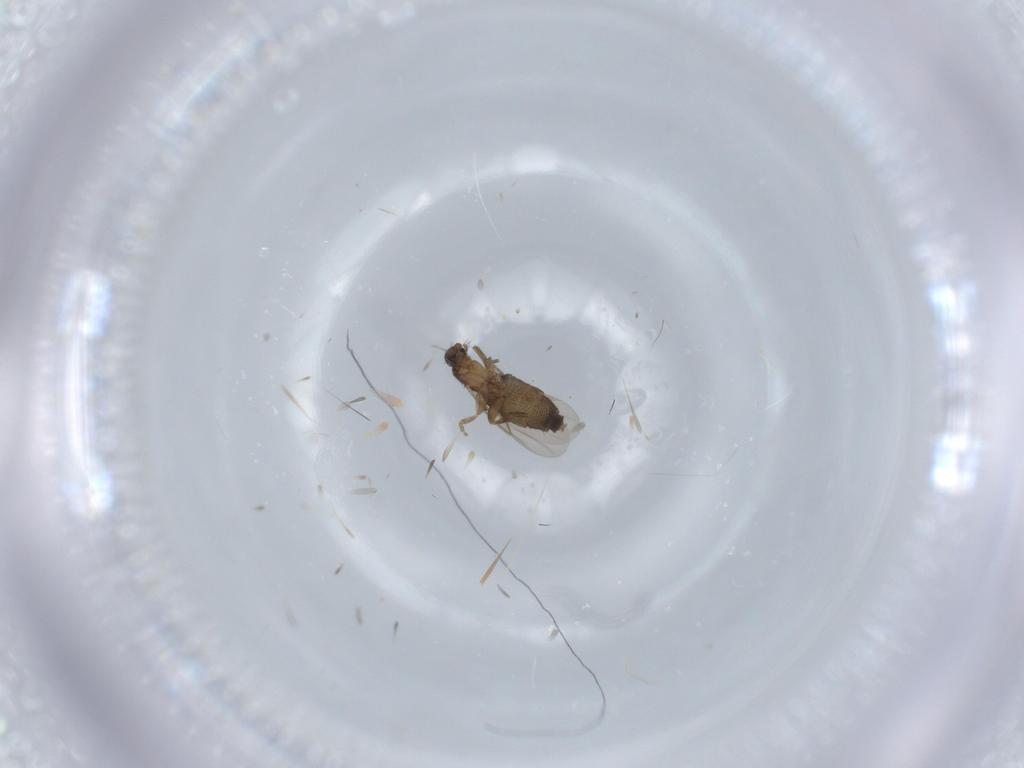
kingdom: Animalia
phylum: Arthropoda
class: Insecta
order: Diptera
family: Phoridae
